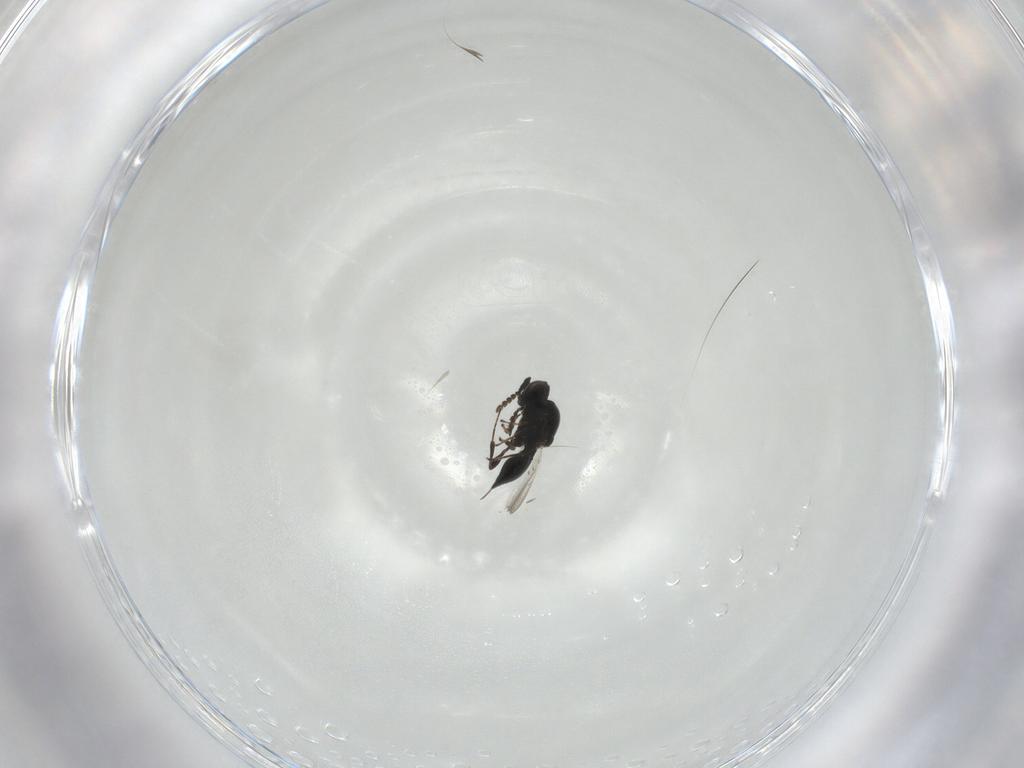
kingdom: Animalia
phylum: Arthropoda
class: Insecta
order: Hymenoptera
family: Platygastridae
